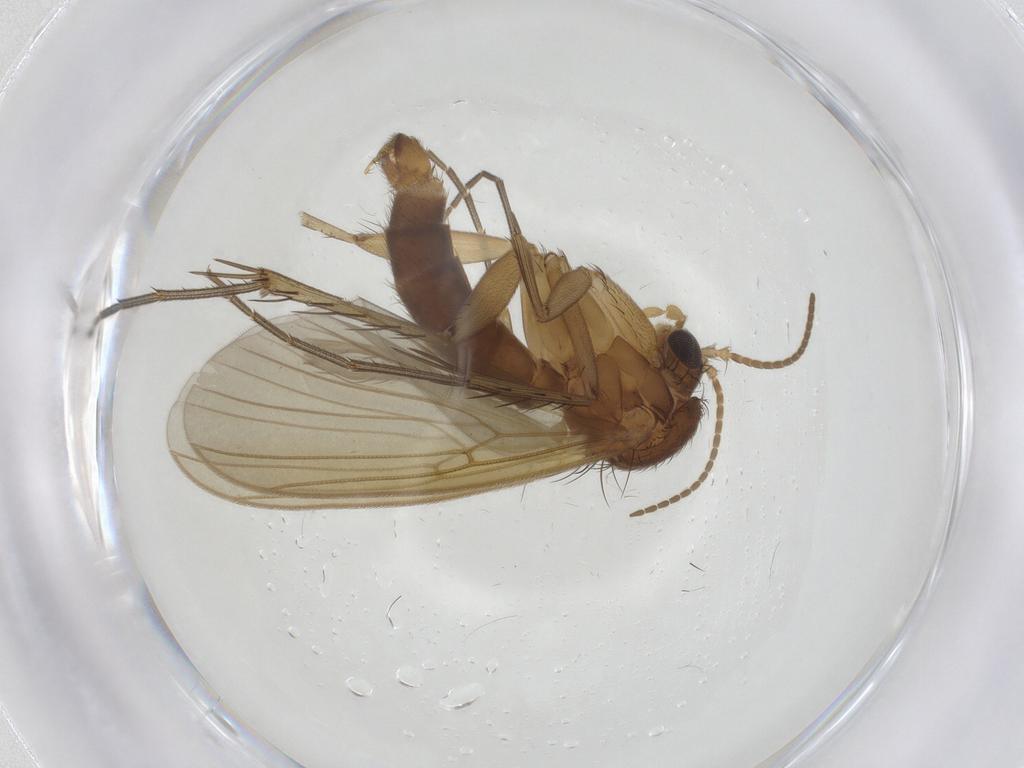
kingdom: Animalia
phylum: Arthropoda
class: Insecta
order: Diptera
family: Mycetophilidae
